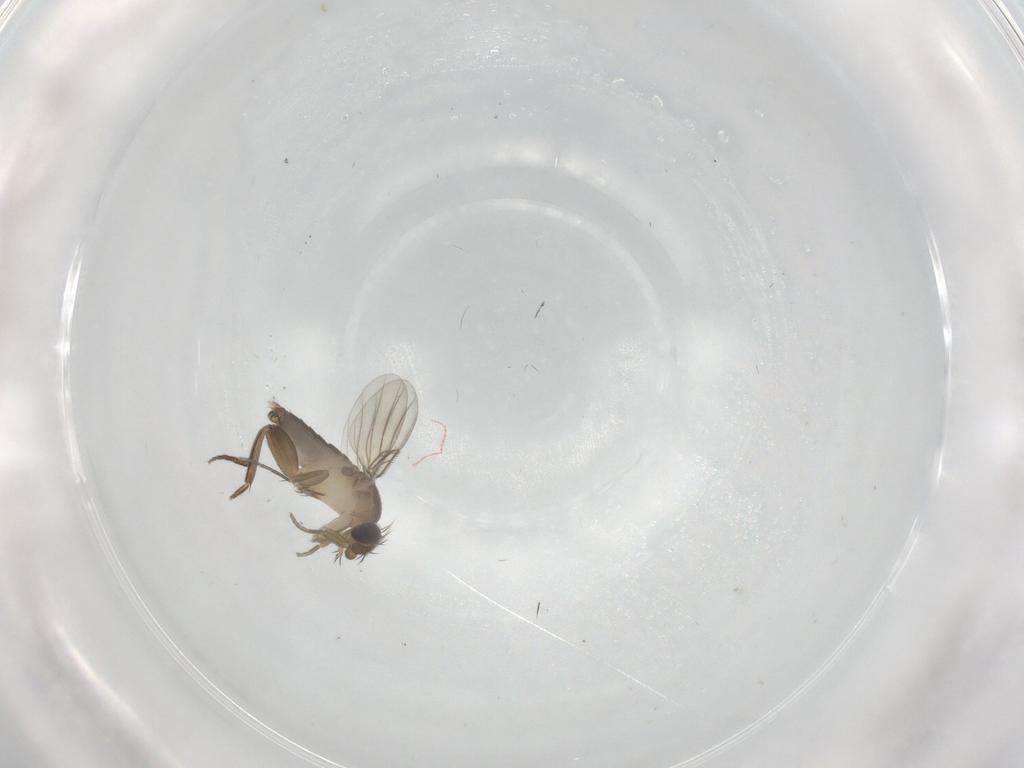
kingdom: Animalia
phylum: Arthropoda
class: Insecta
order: Diptera
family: Phoridae
